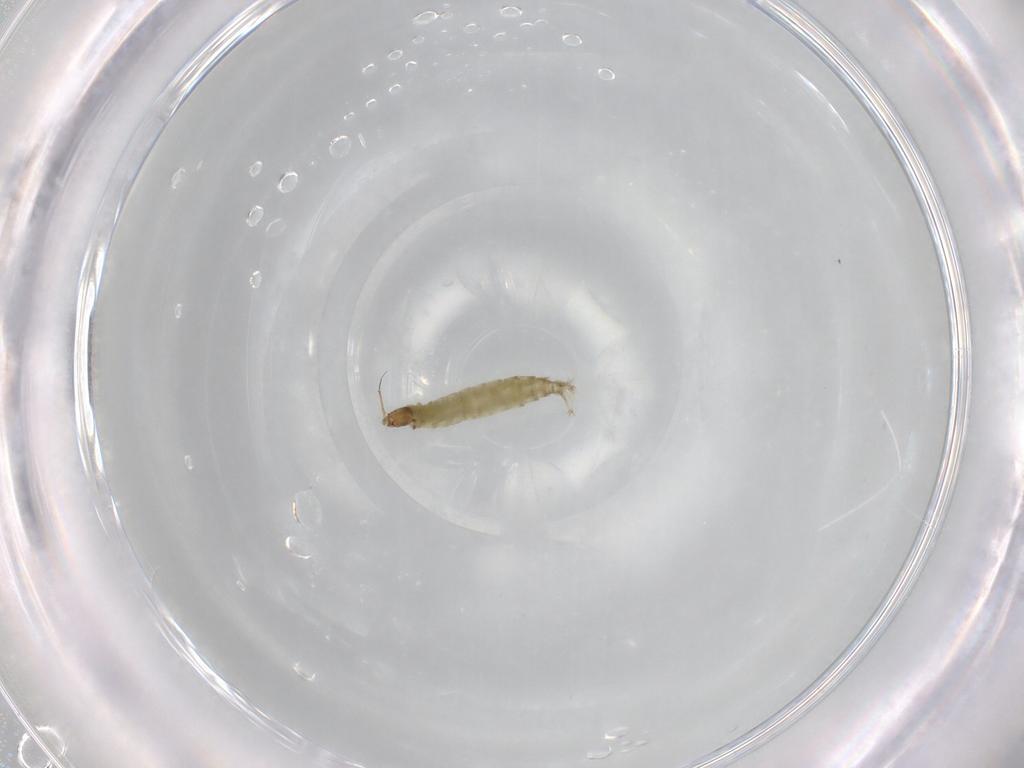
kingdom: Animalia
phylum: Arthropoda
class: Insecta
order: Diptera
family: Chironomidae
